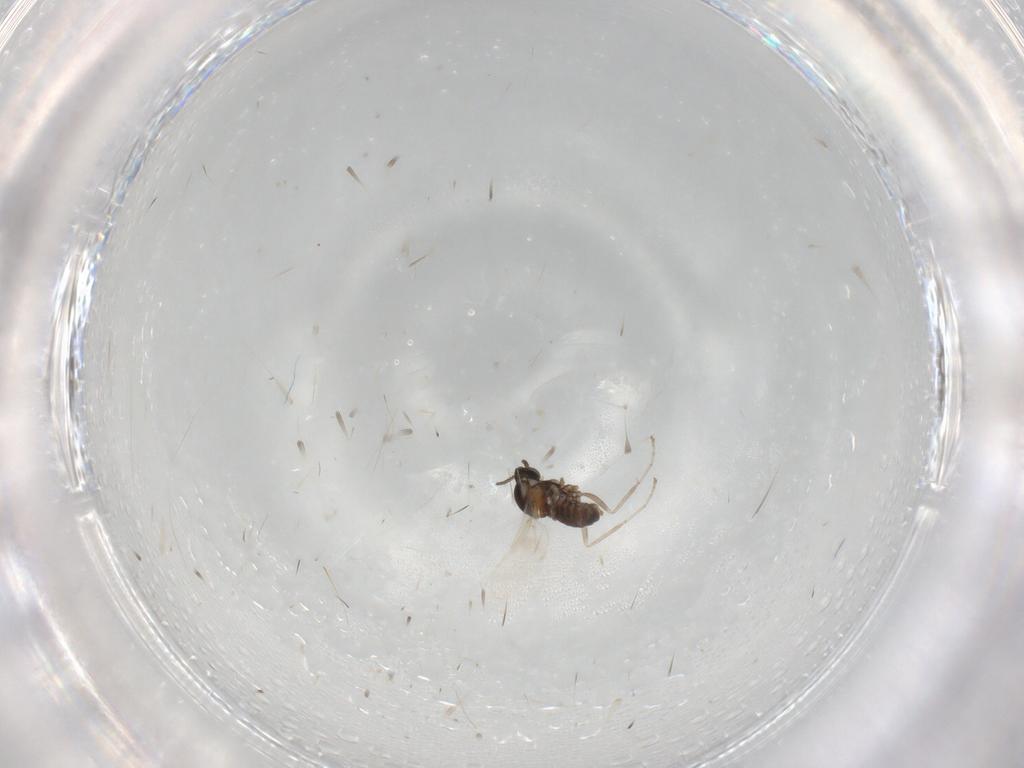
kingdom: Animalia
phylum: Arthropoda
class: Insecta
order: Diptera
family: Cecidomyiidae
